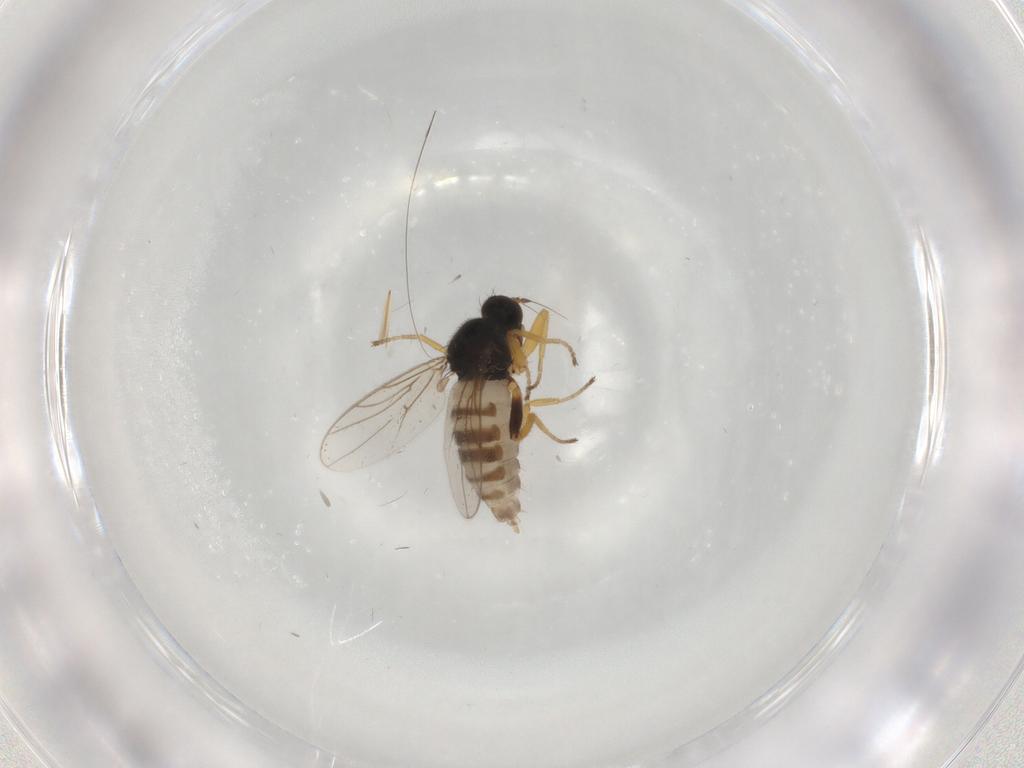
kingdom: Animalia
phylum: Arthropoda
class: Insecta
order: Diptera
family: Hybotidae
